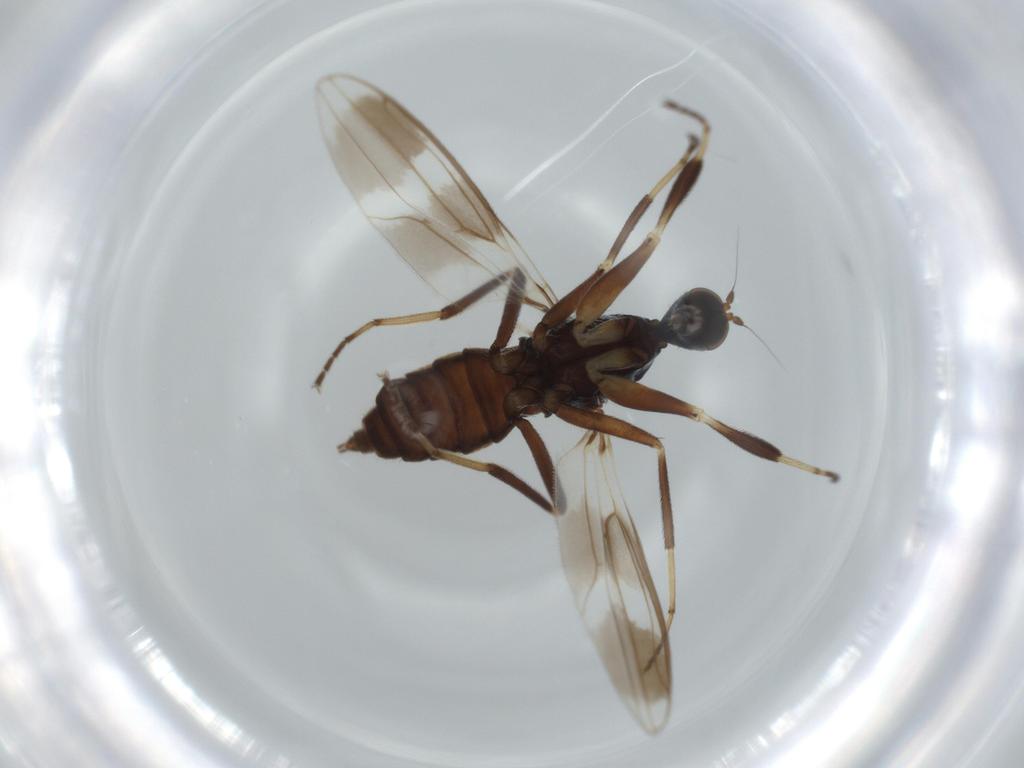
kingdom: Animalia
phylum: Arthropoda
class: Insecta
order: Diptera
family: Hybotidae
